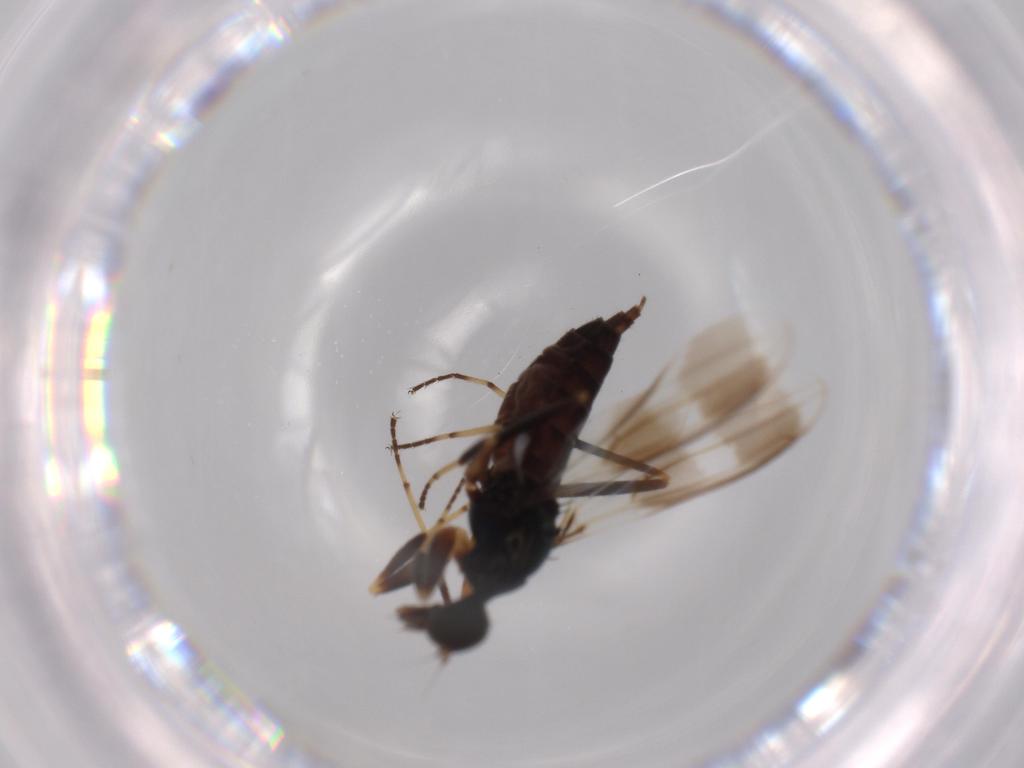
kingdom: Animalia
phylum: Arthropoda
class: Insecta
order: Diptera
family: Hybotidae
